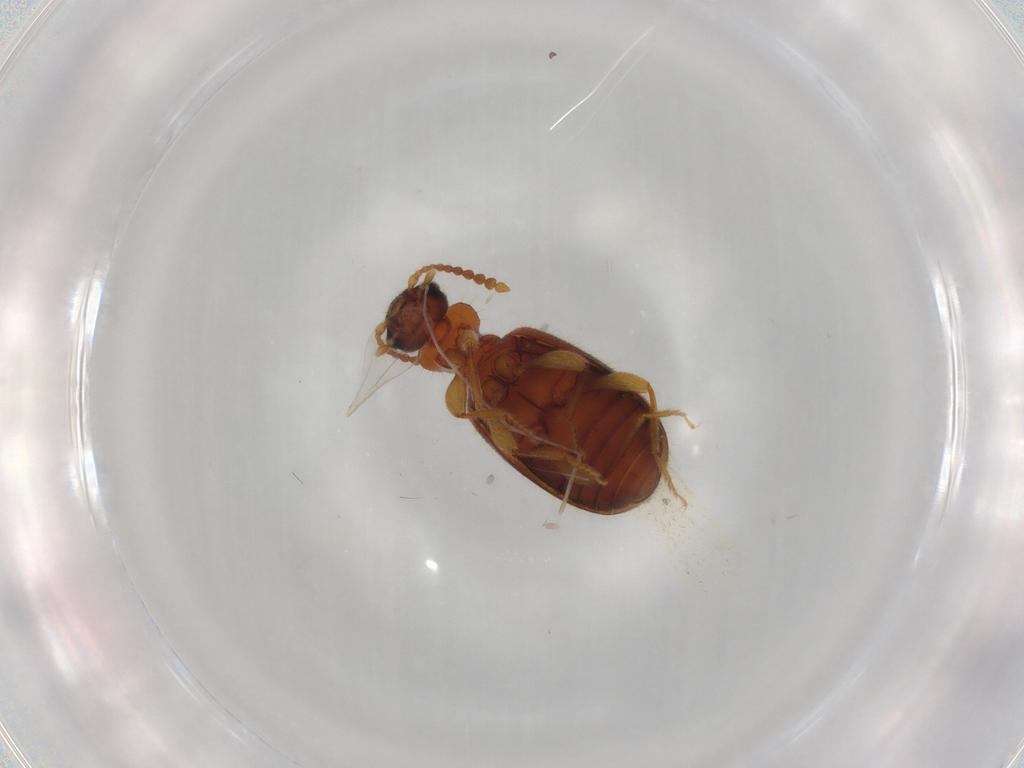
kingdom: Animalia
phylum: Arthropoda
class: Insecta
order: Coleoptera
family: Anthicidae
